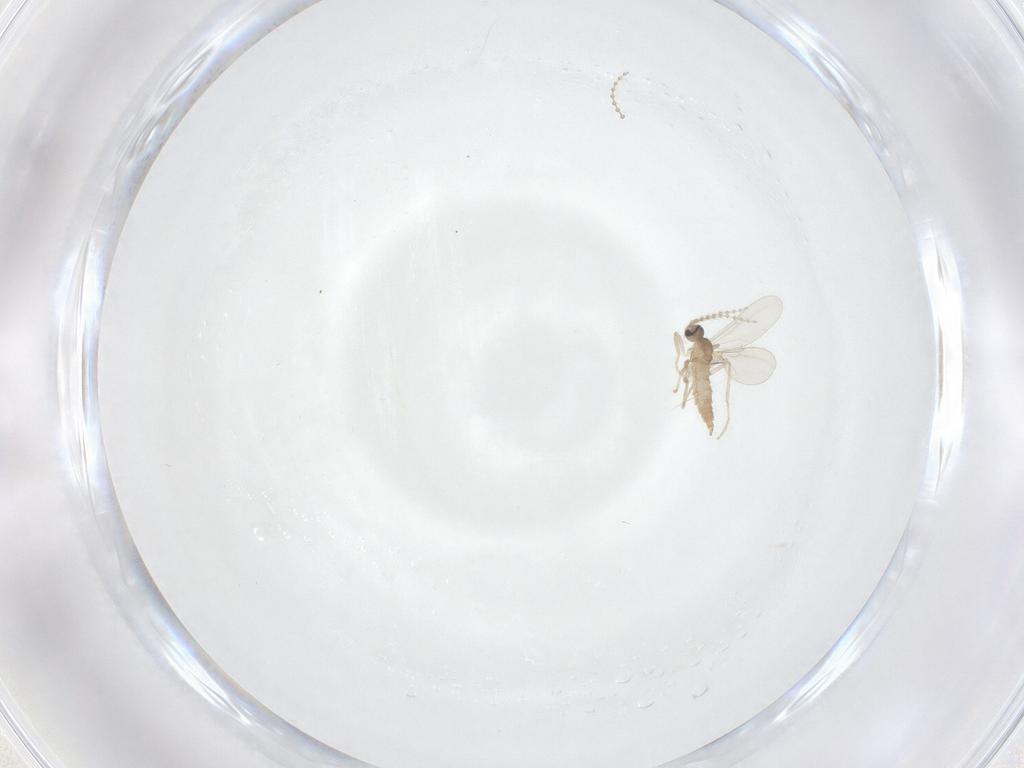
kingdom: Animalia
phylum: Arthropoda
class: Insecta
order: Diptera
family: Cecidomyiidae
